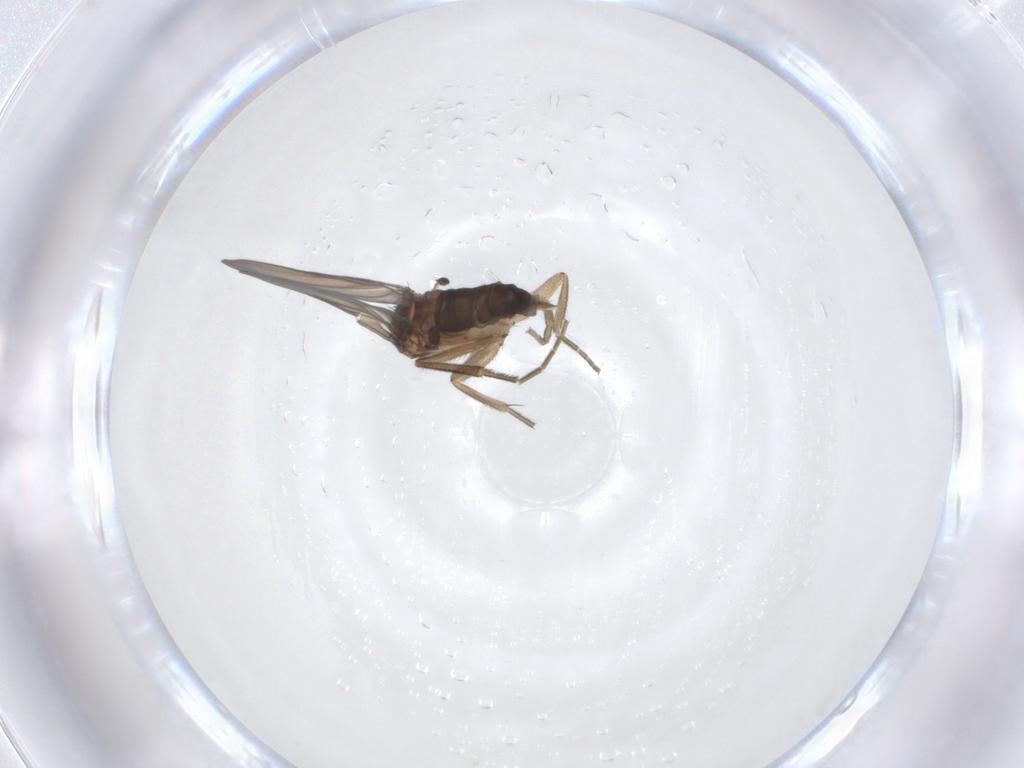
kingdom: Animalia
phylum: Arthropoda
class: Insecta
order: Diptera
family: Phoridae
